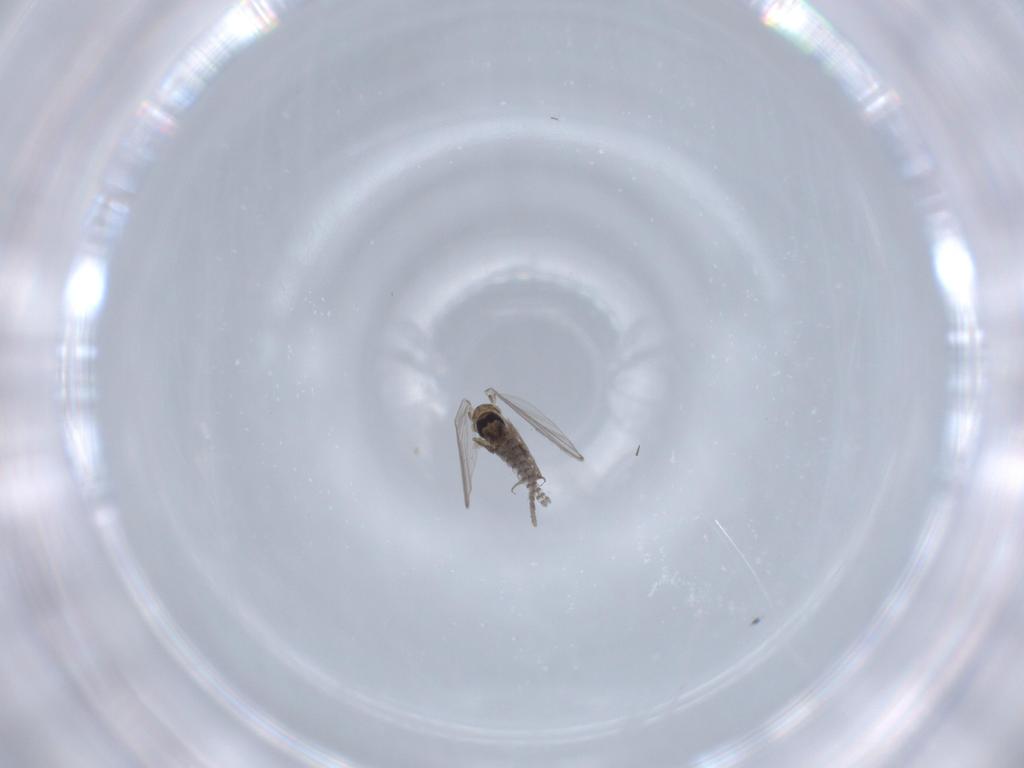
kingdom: Animalia
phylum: Arthropoda
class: Insecta
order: Diptera
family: Psychodidae
